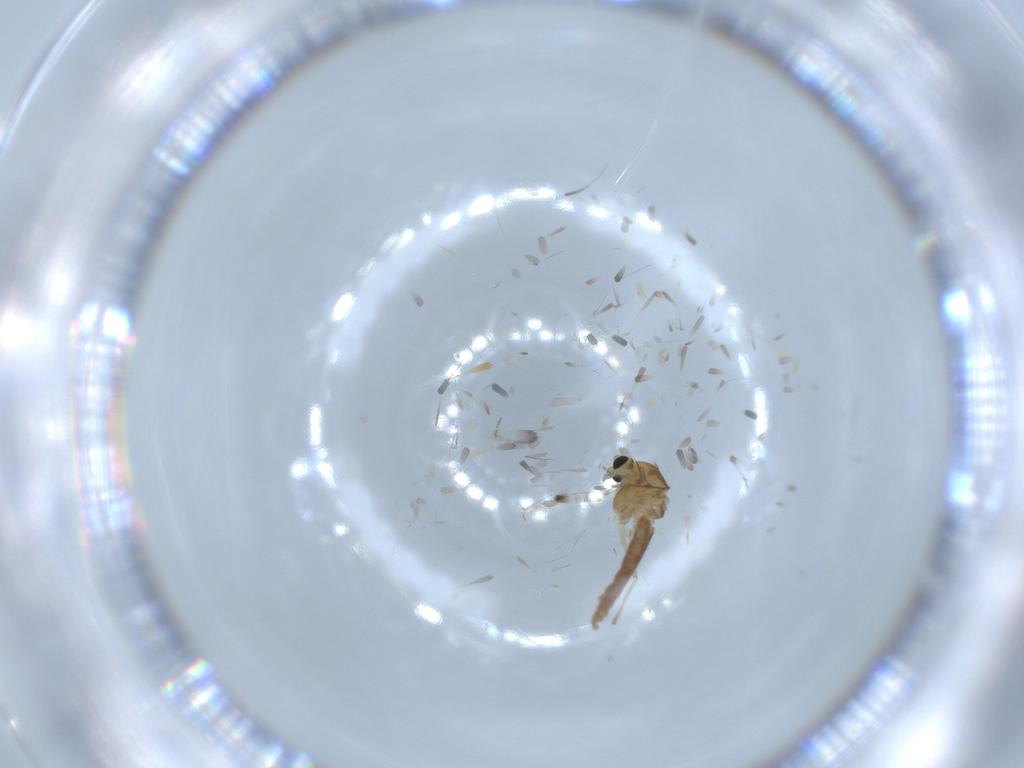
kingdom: Animalia
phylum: Arthropoda
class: Insecta
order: Diptera
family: Chironomidae
